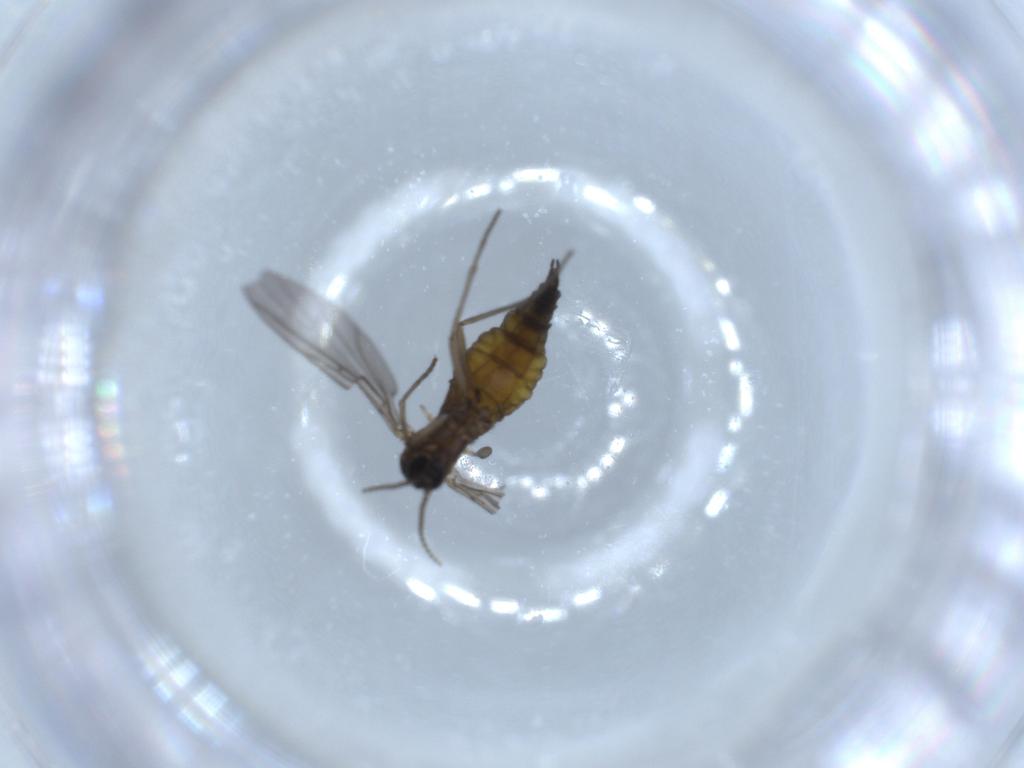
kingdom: Animalia
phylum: Arthropoda
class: Insecta
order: Diptera
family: Sciaridae
